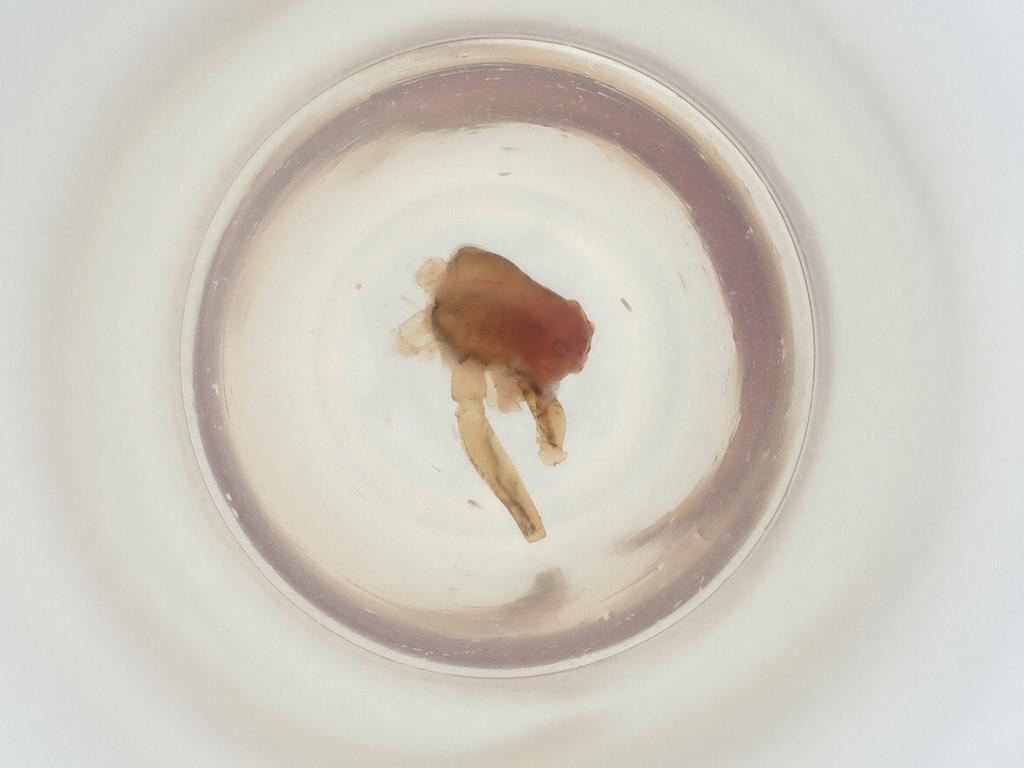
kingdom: Animalia
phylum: Arthropoda
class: Arachnida
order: Araneae
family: Pisauridae
